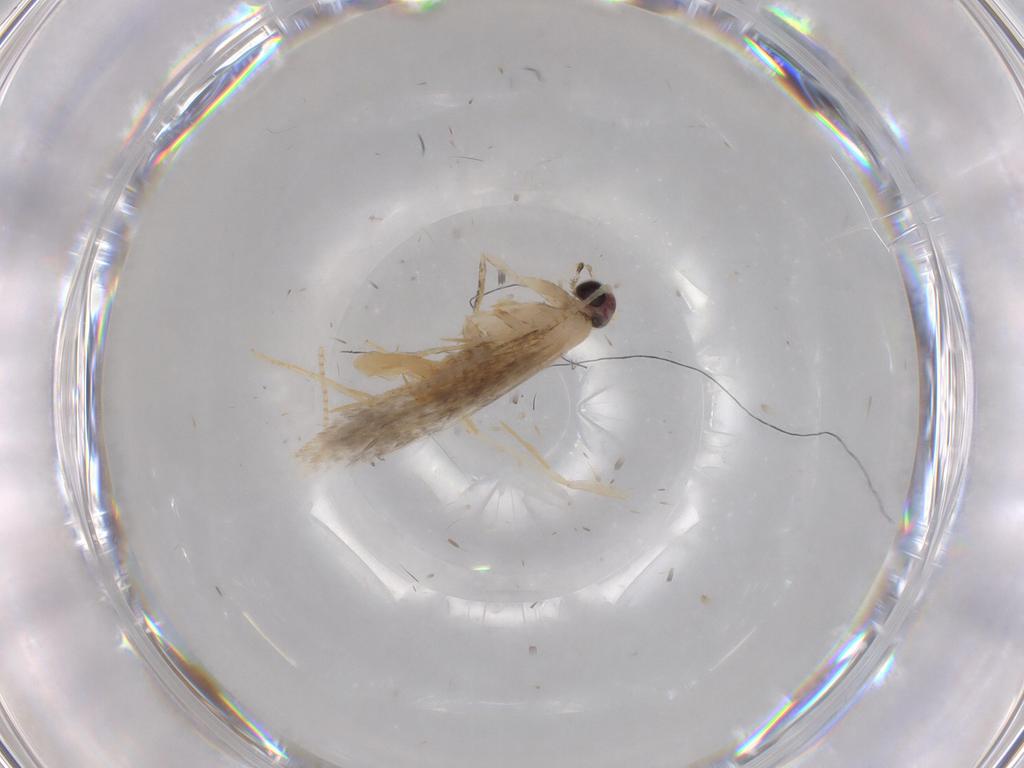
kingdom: Animalia
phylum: Arthropoda
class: Insecta
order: Lepidoptera
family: Nepticulidae
